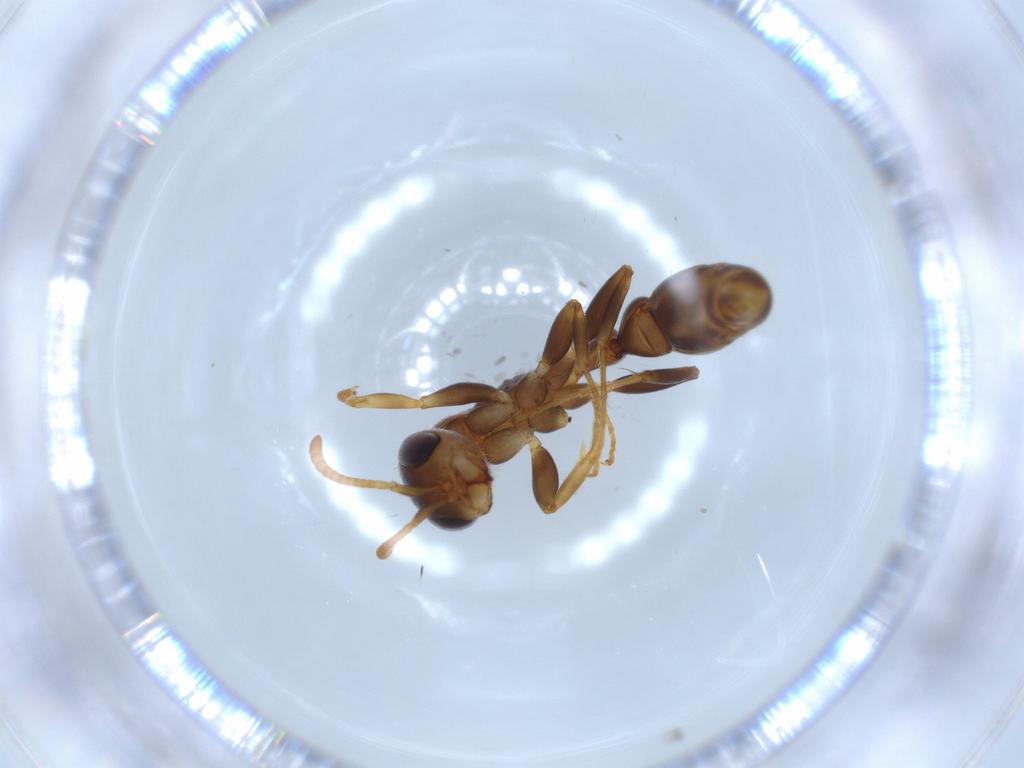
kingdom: Animalia
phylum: Arthropoda
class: Insecta
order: Hymenoptera
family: Formicidae
